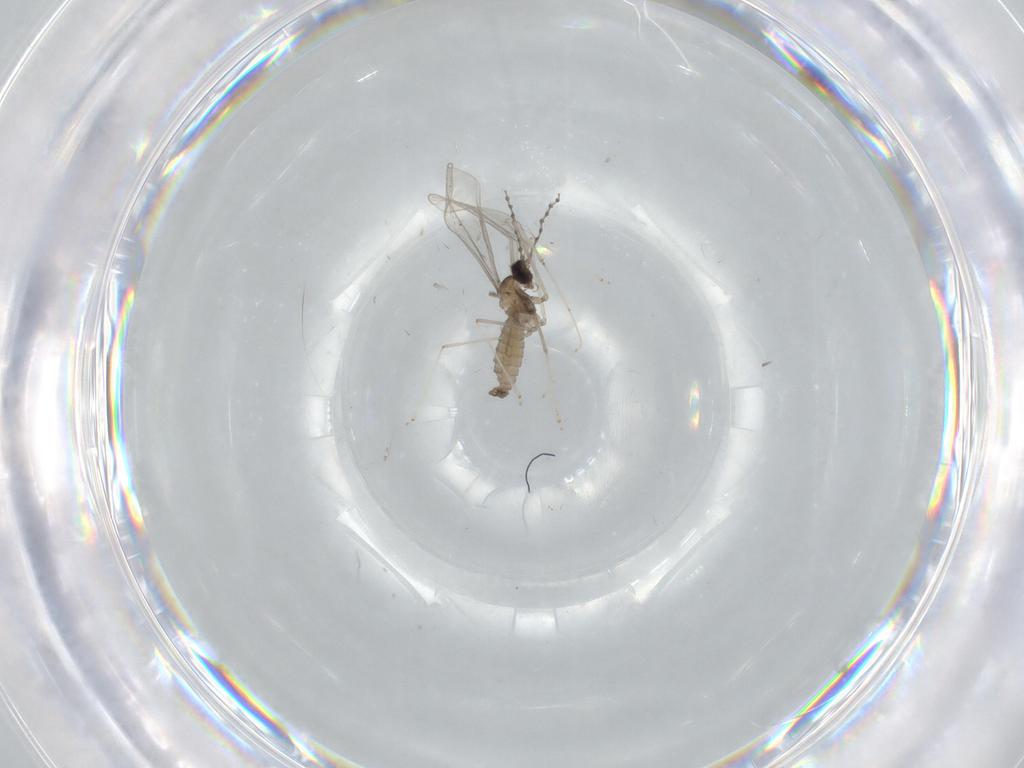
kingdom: Animalia
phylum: Arthropoda
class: Insecta
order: Diptera
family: Cecidomyiidae
